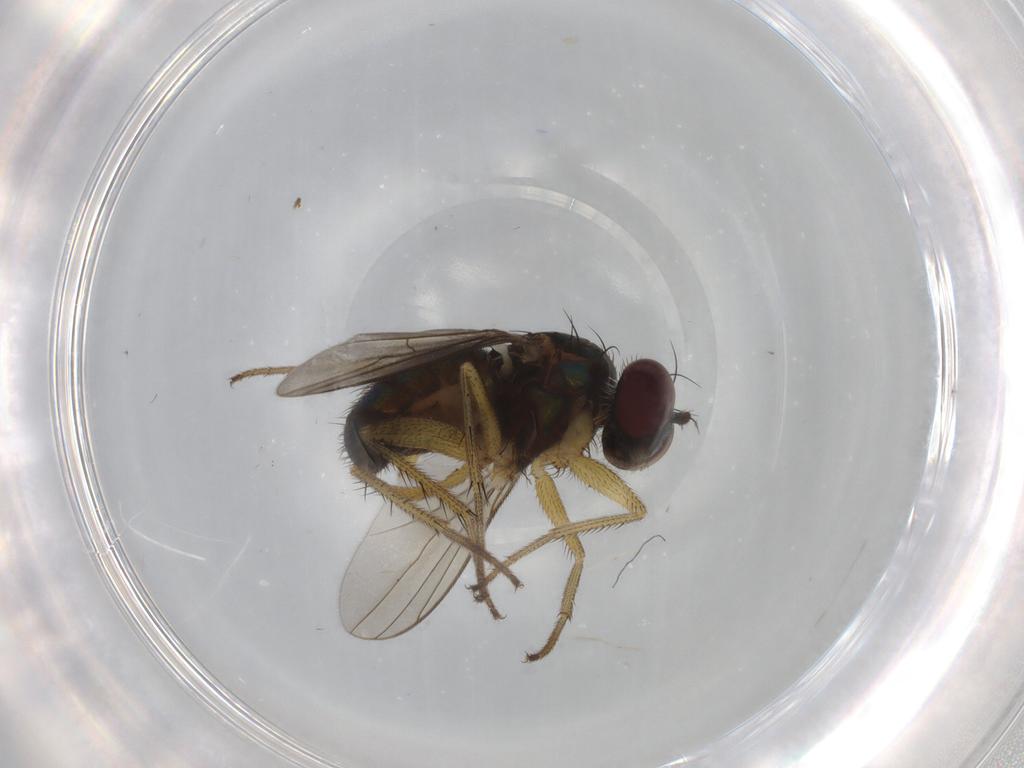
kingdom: Animalia
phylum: Arthropoda
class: Insecta
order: Diptera
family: Dolichopodidae
